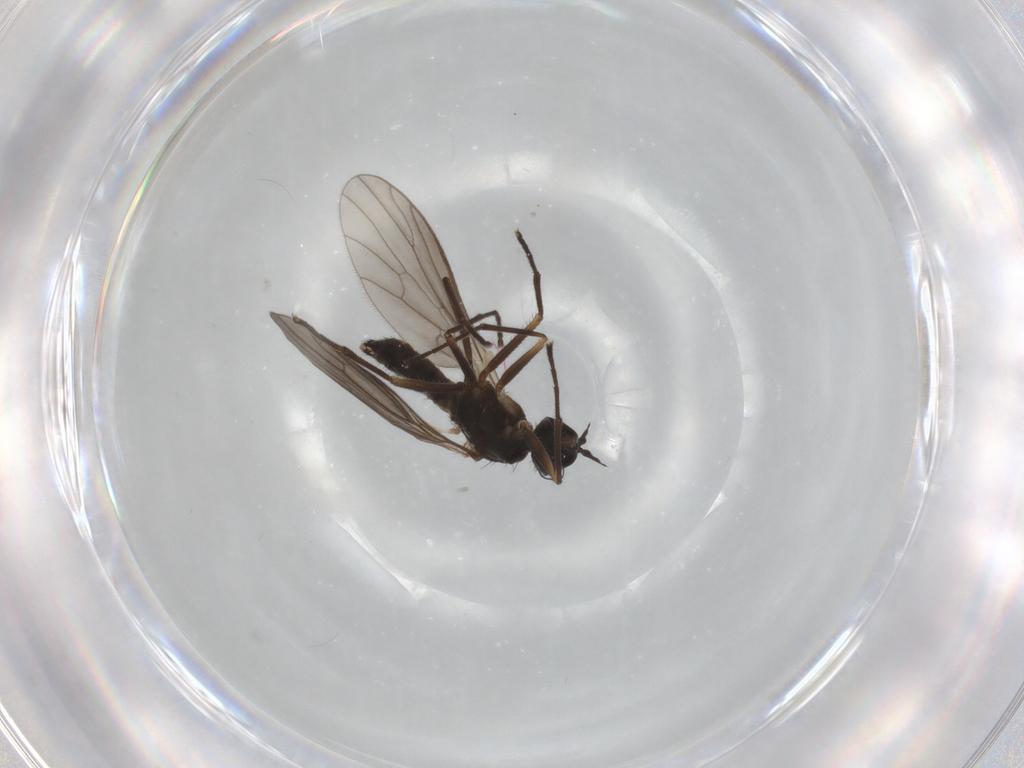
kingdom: Animalia
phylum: Arthropoda
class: Insecta
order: Diptera
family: Empididae
